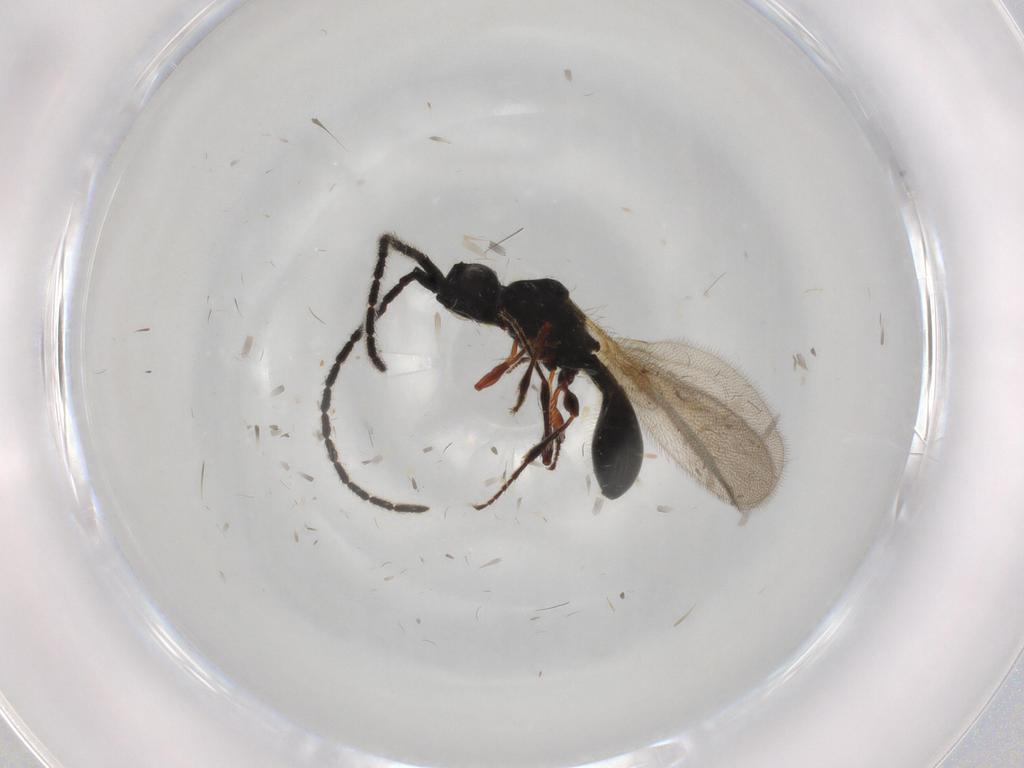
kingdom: Animalia
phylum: Arthropoda
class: Insecta
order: Hymenoptera
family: Diapriidae
